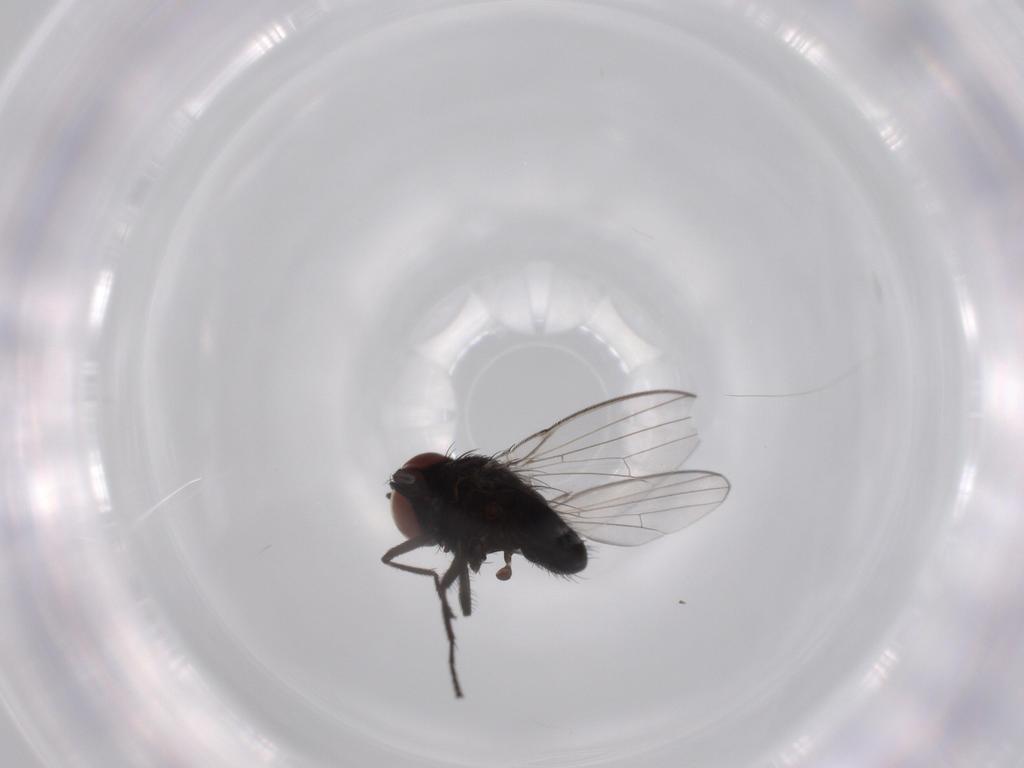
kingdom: Animalia
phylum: Arthropoda
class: Insecta
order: Diptera
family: Milichiidae
